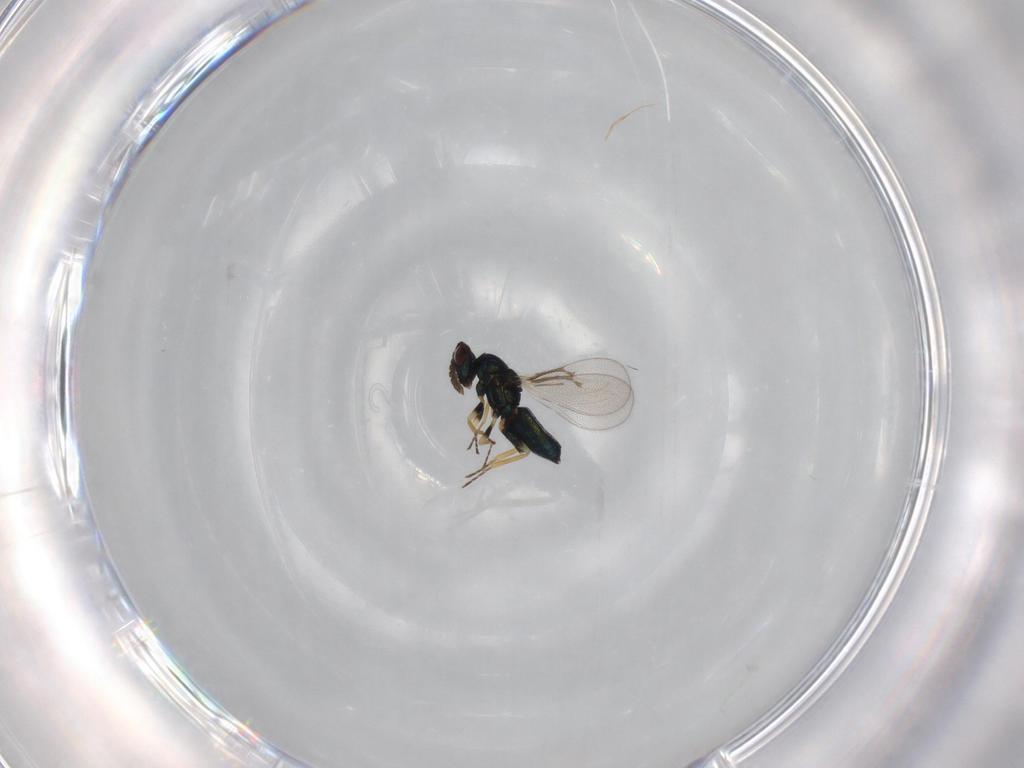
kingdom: Animalia
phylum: Arthropoda
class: Insecta
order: Hymenoptera
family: Eulophidae
